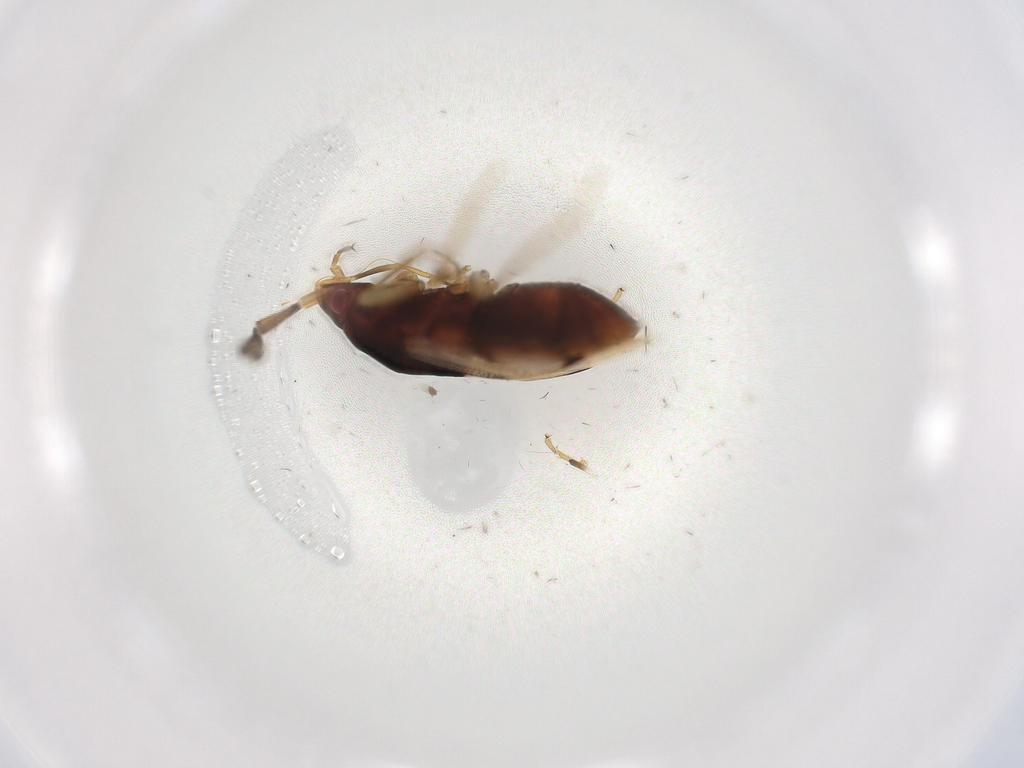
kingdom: Animalia
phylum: Arthropoda
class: Insecta
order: Hemiptera
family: Rhyparochromidae
